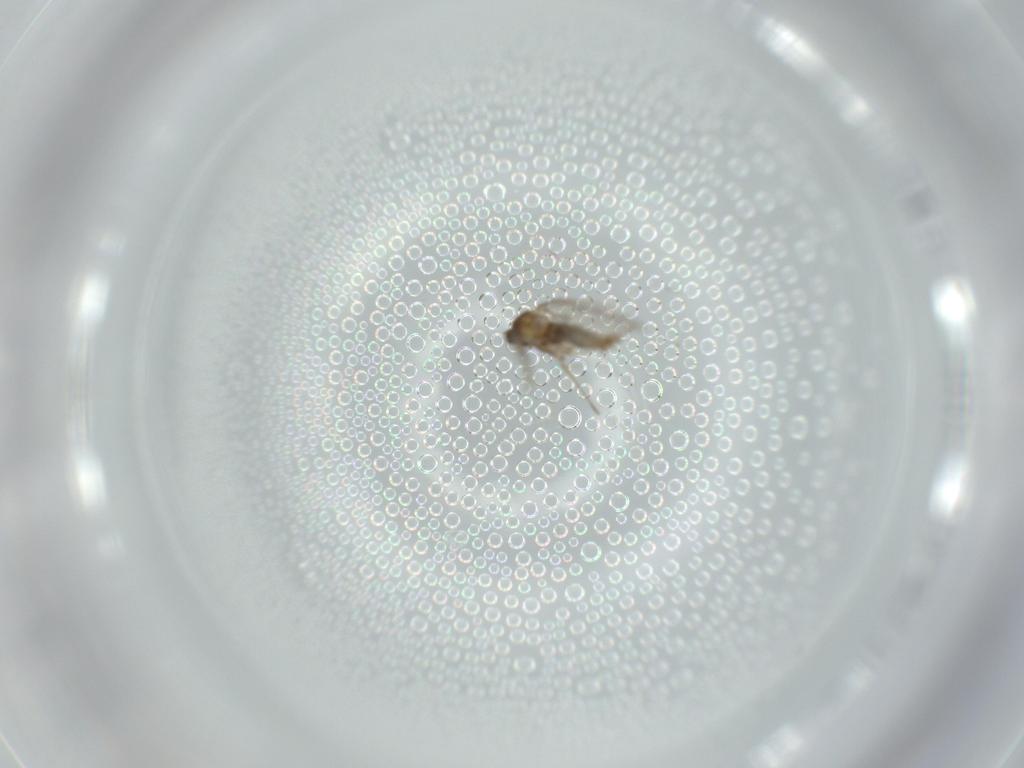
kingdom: Animalia
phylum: Arthropoda
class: Insecta
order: Diptera
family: Cecidomyiidae
